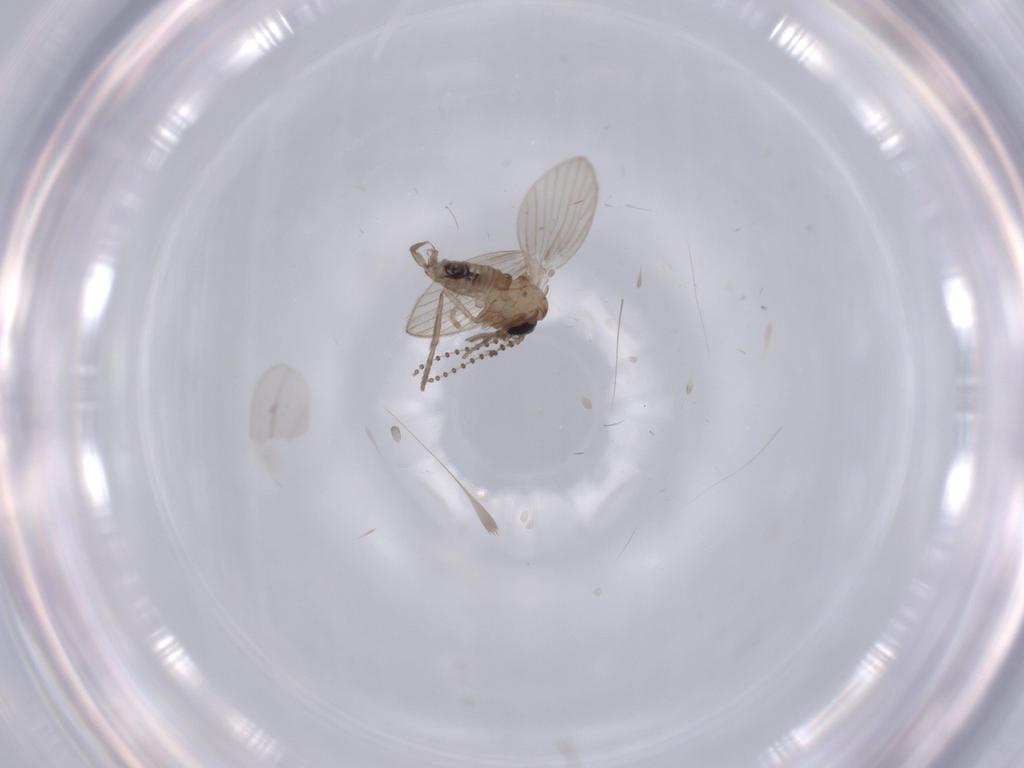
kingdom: Animalia
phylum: Arthropoda
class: Insecta
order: Diptera
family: Psychodidae
